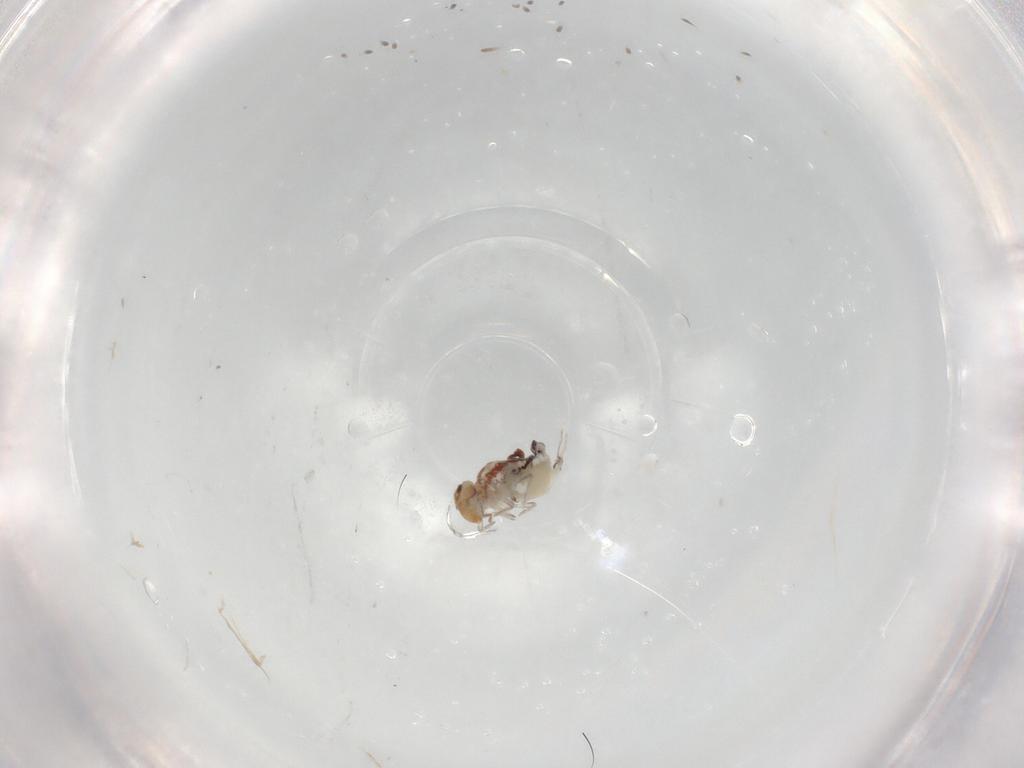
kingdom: Animalia
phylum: Arthropoda
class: Collembola
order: Symphypleona
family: Bourletiellidae
